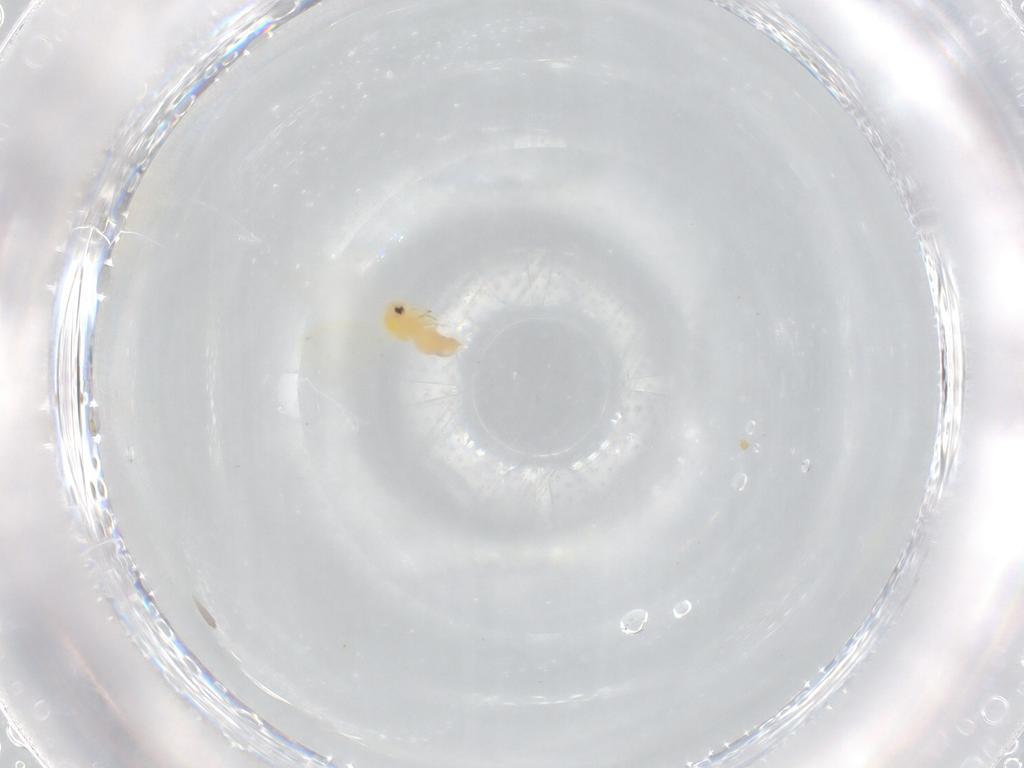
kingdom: Animalia
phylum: Arthropoda
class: Insecta
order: Hemiptera
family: Aleyrodidae
